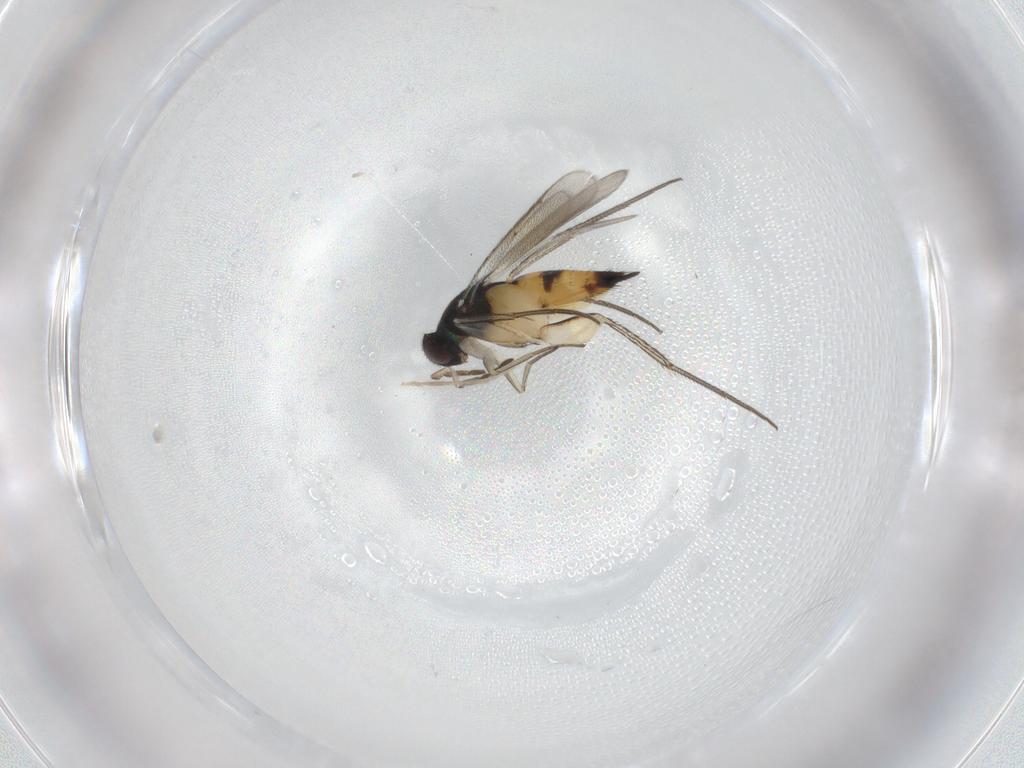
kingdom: Animalia
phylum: Arthropoda
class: Insecta
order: Hymenoptera
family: Eulophidae
